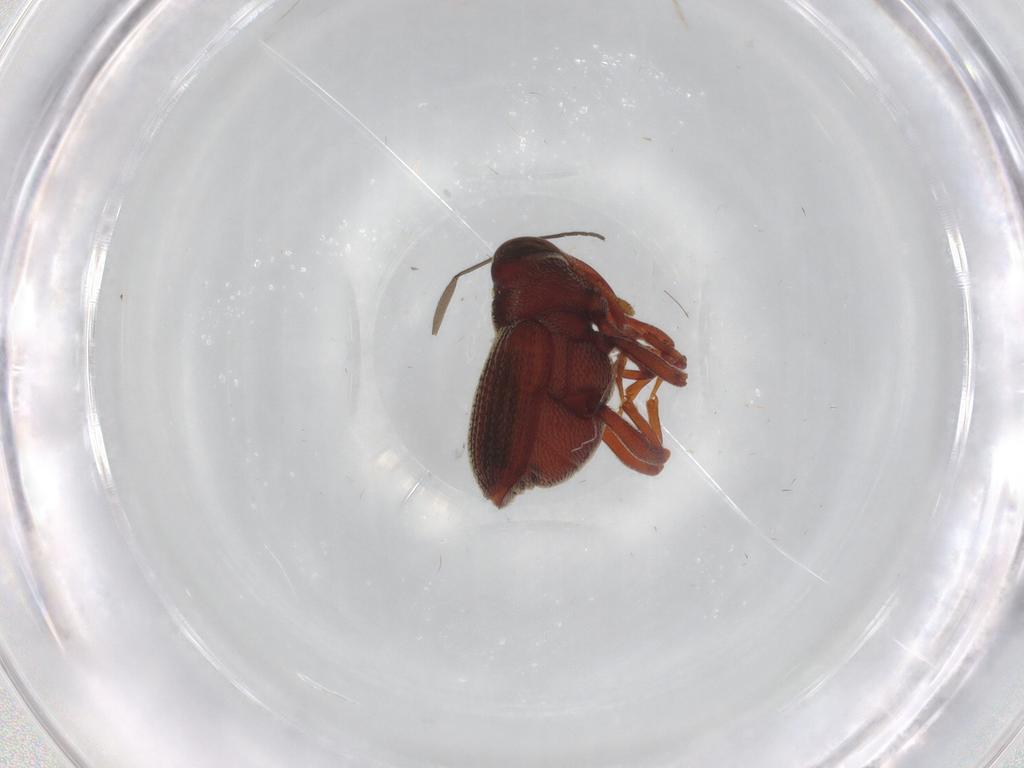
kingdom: Animalia
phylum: Arthropoda
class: Insecta
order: Coleoptera
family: Curculionidae
